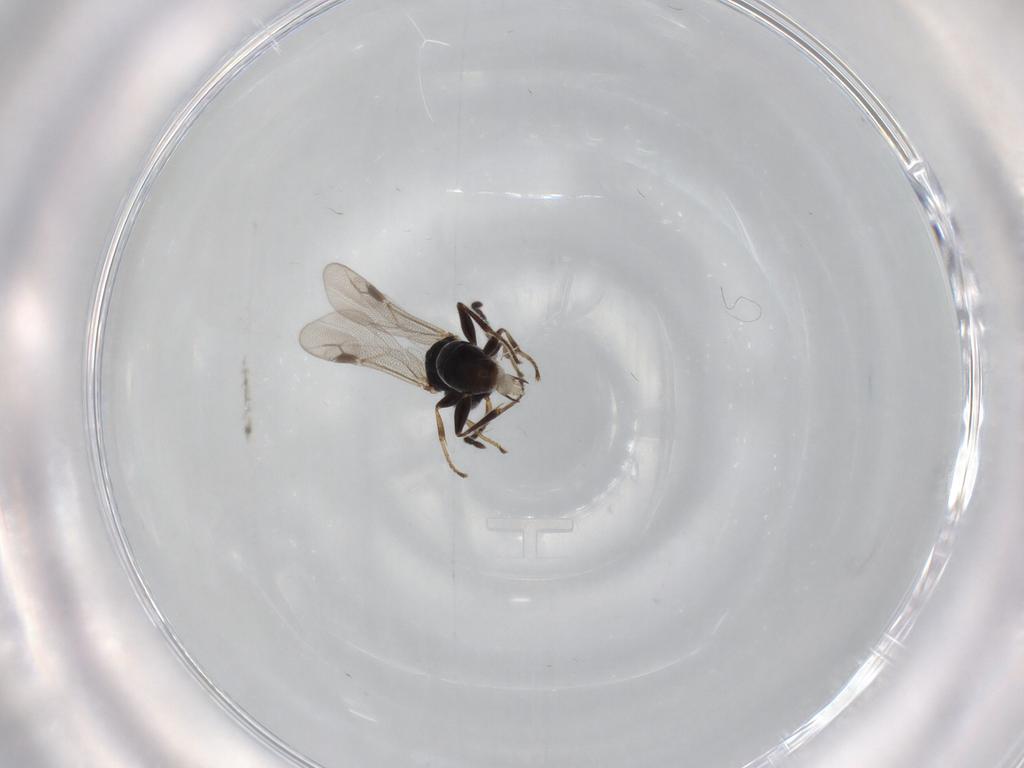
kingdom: Animalia
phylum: Arthropoda
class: Insecta
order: Hymenoptera
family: Dryinidae
